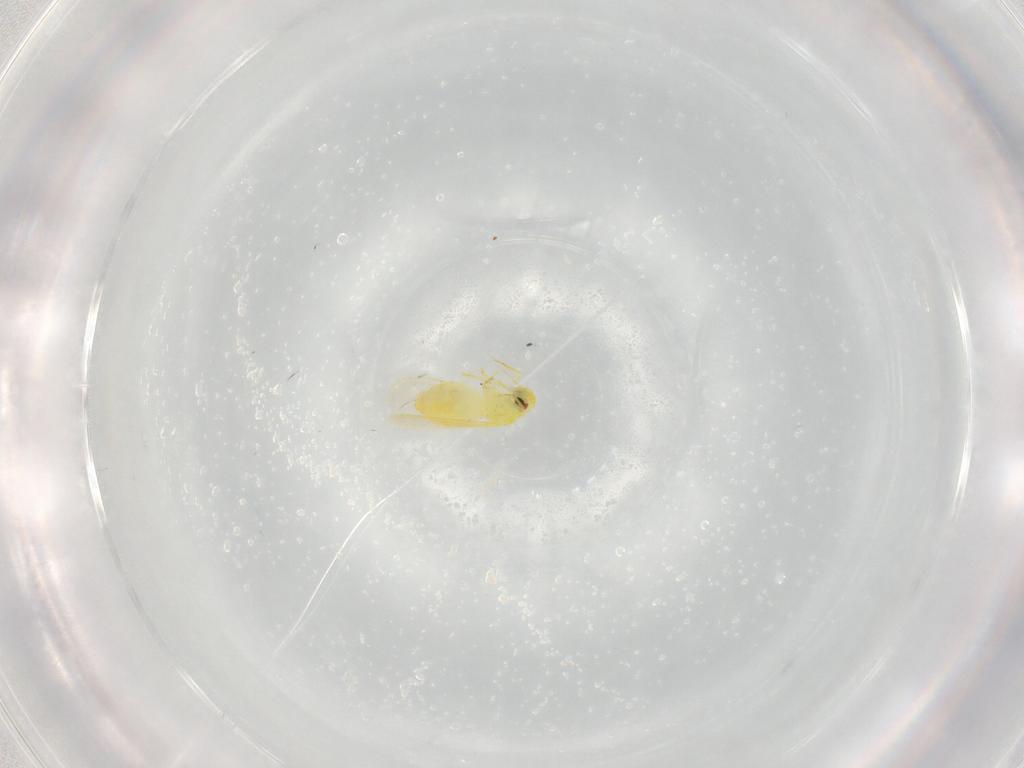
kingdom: Animalia
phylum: Arthropoda
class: Insecta
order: Hemiptera
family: Aleyrodidae
